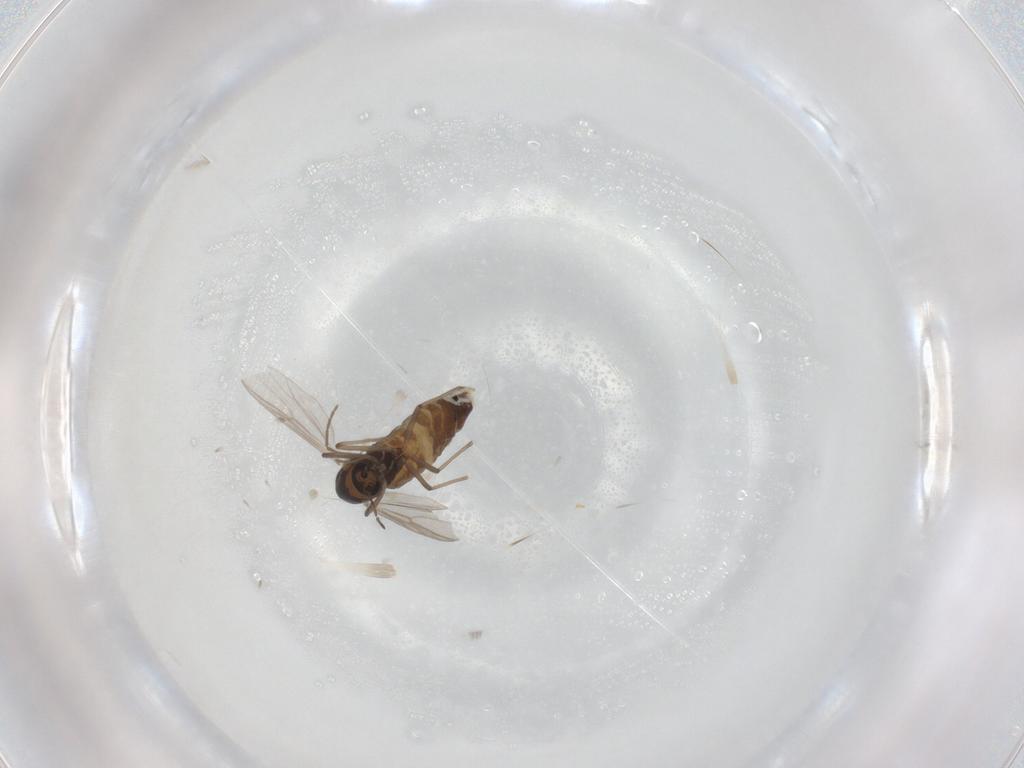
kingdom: Animalia
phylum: Arthropoda
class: Insecta
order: Diptera
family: Chironomidae
